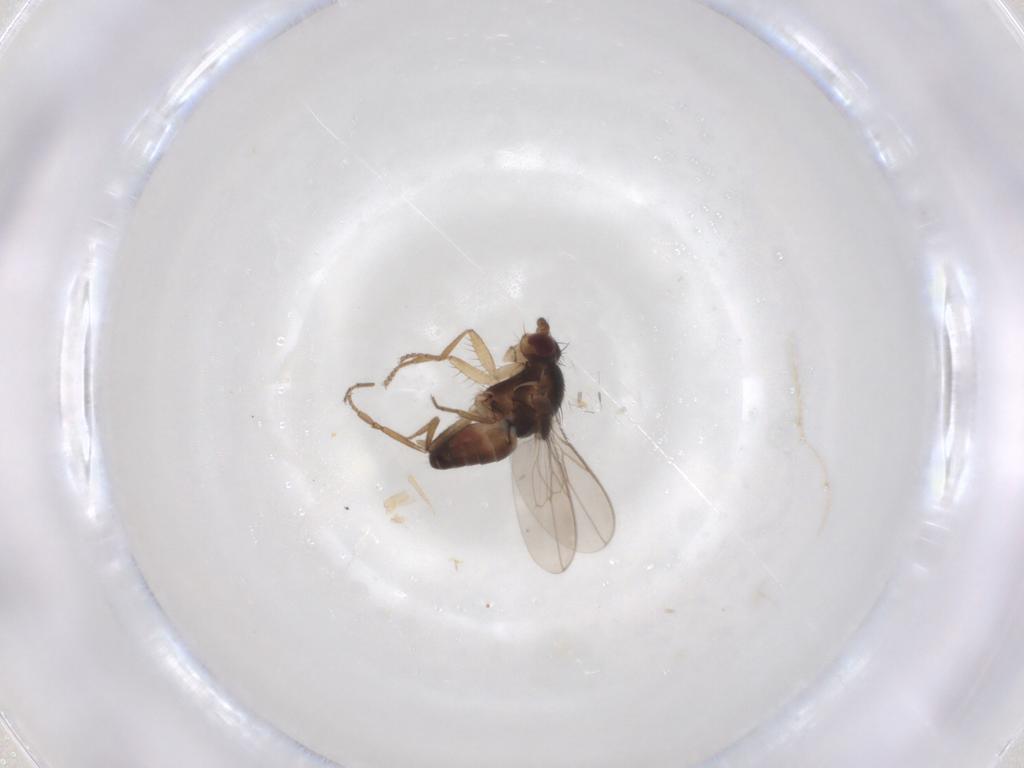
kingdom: Animalia
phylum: Arthropoda
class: Insecta
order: Diptera
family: Sphaeroceridae
